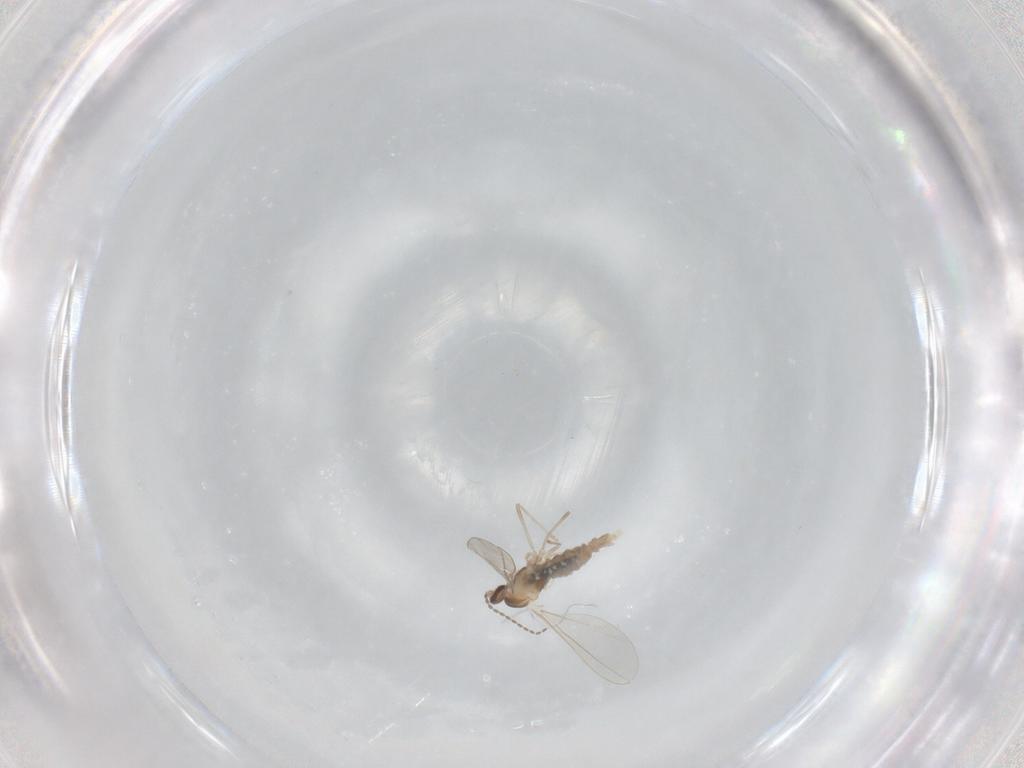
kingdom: Animalia
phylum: Arthropoda
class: Insecta
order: Diptera
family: Cecidomyiidae
